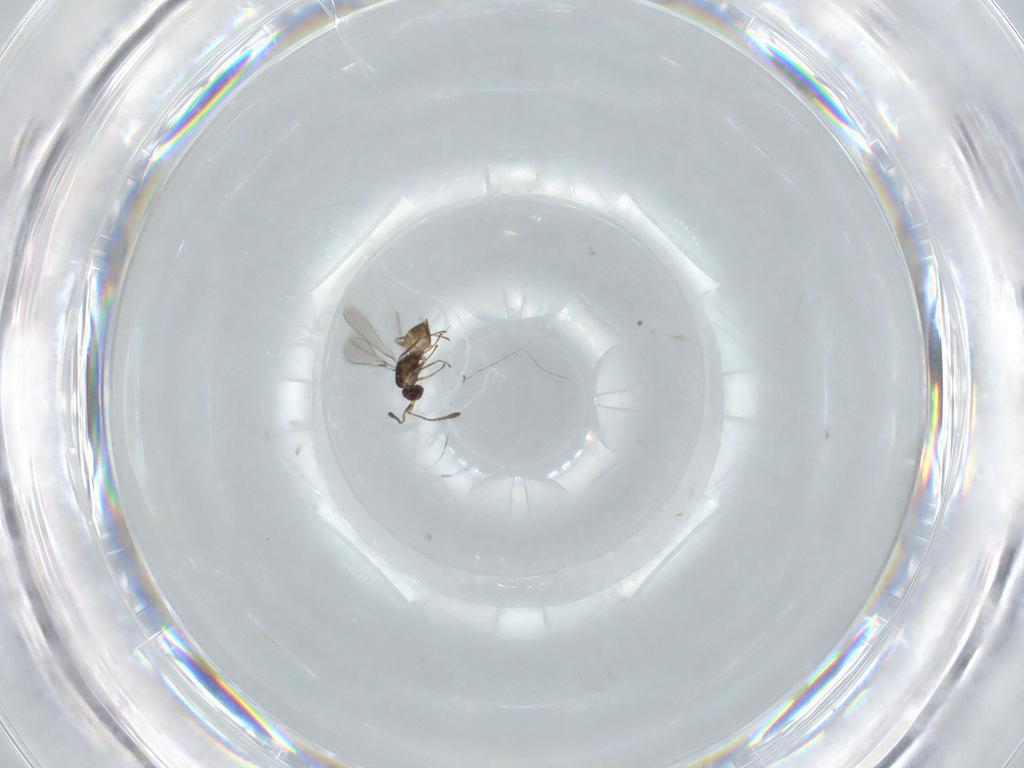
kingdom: Animalia
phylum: Arthropoda
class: Insecta
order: Hymenoptera
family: Mymaridae
